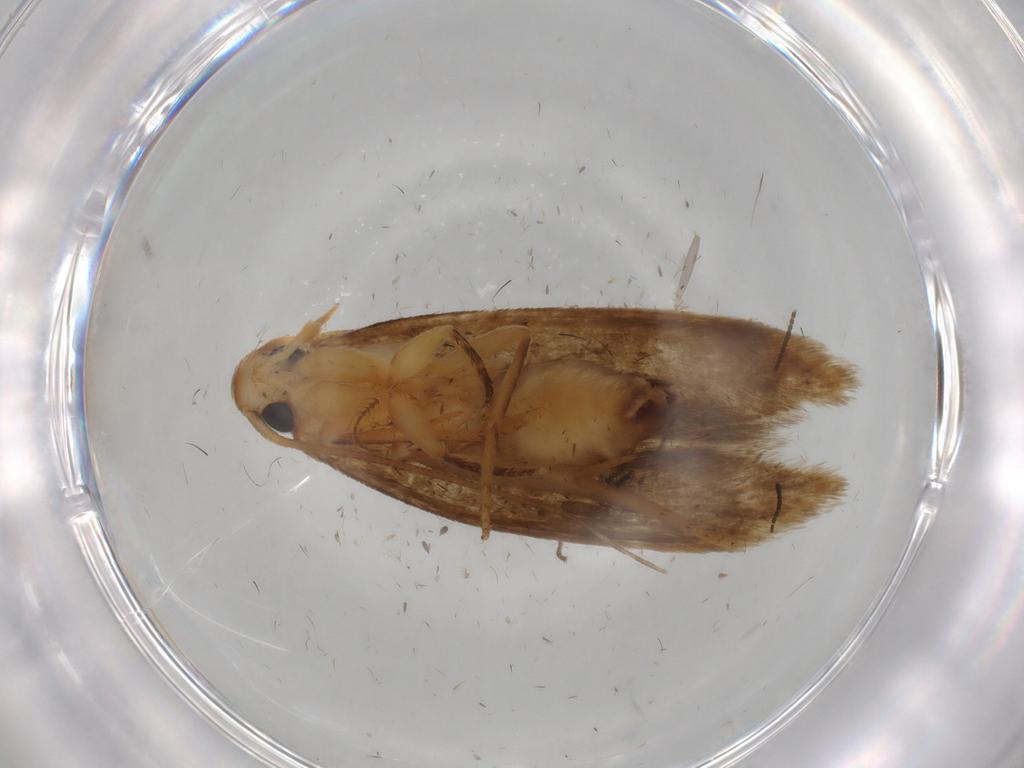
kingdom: Animalia
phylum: Arthropoda
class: Insecta
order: Lepidoptera
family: Tineidae
